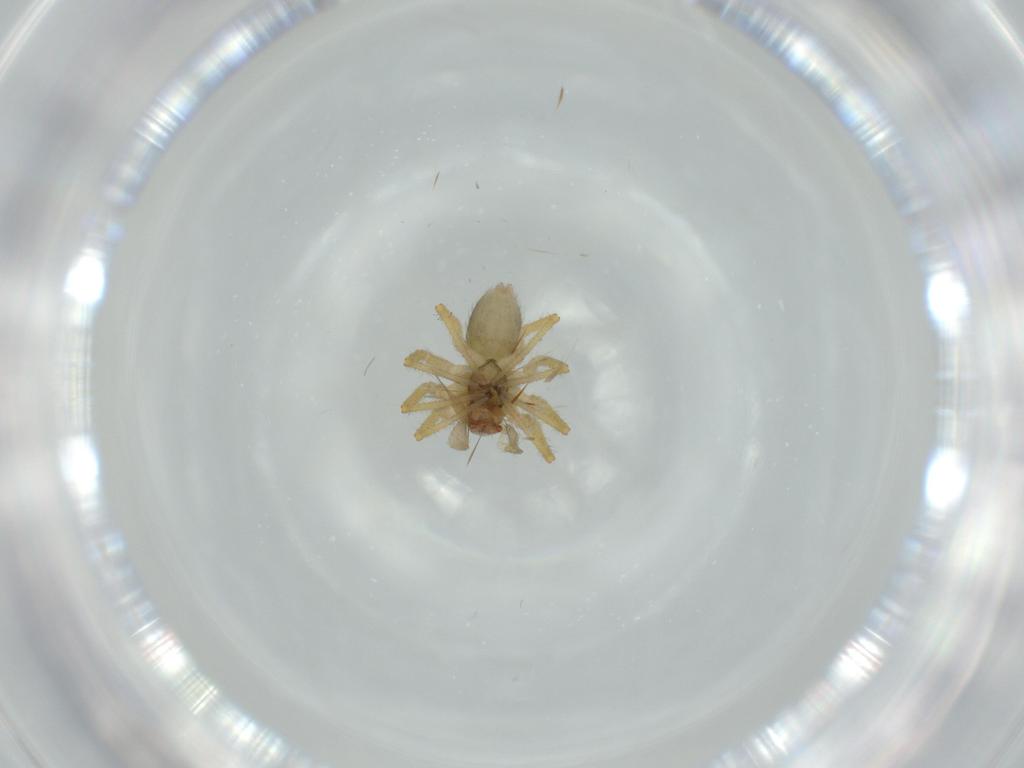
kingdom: Animalia
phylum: Arthropoda
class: Arachnida
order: Araneae
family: Linyphiidae
